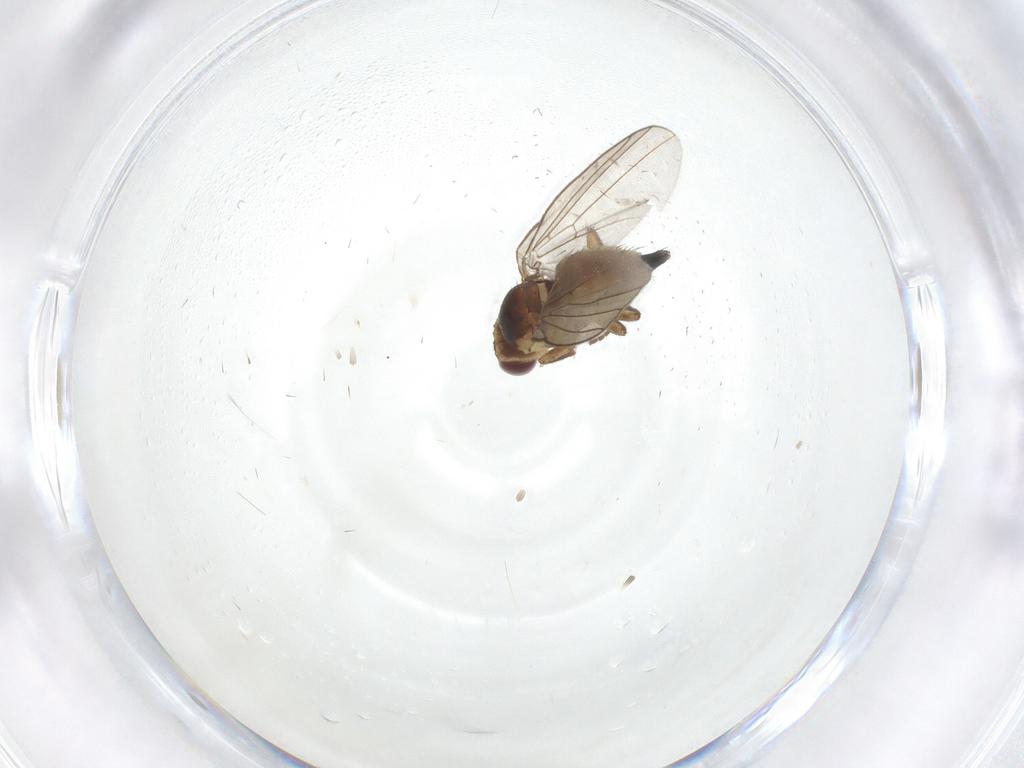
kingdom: Animalia
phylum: Arthropoda
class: Insecta
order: Diptera
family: Agromyzidae
